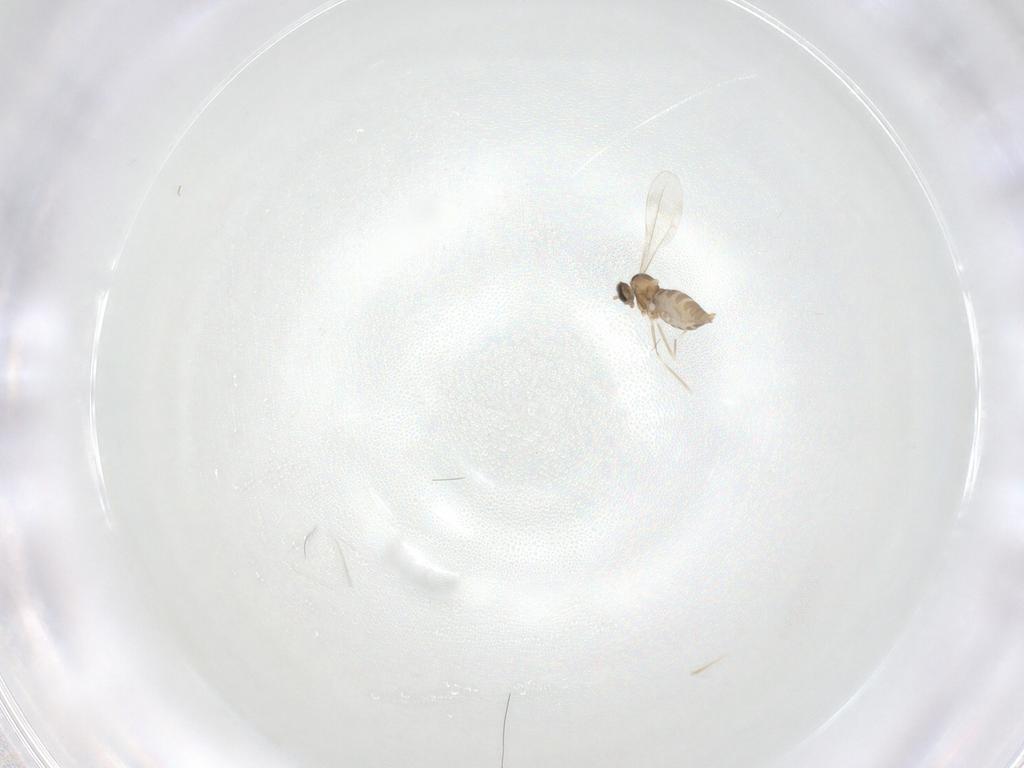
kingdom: Animalia
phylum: Arthropoda
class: Insecta
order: Diptera
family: Cecidomyiidae
